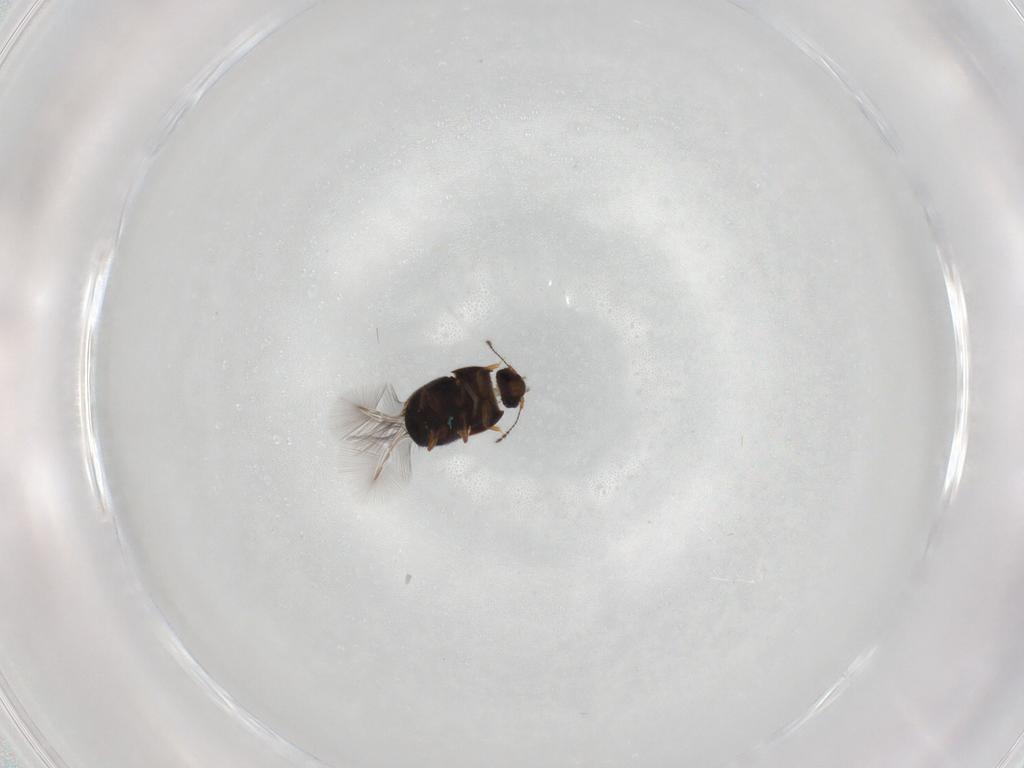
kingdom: Animalia
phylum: Arthropoda
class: Insecta
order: Coleoptera
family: Ptiliidae
